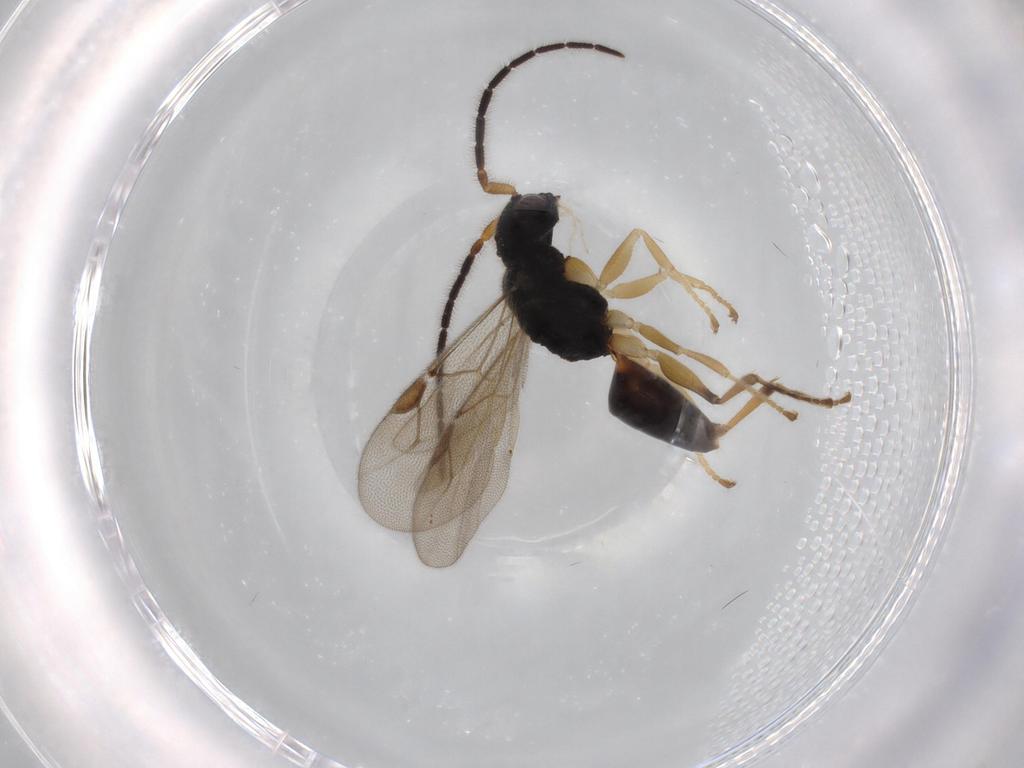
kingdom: Animalia
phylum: Arthropoda
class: Insecta
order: Hymenoptera
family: Dryinidae
